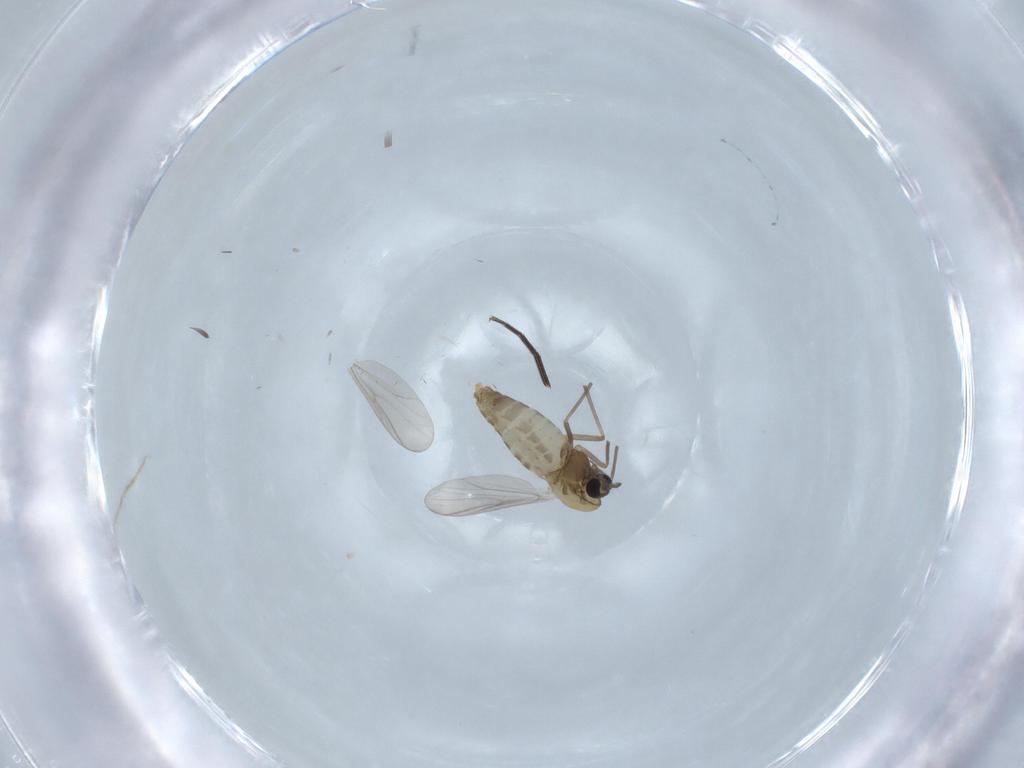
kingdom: Animalia
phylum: Arthropoda
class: Insecta
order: Diptera
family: Chironomidae
